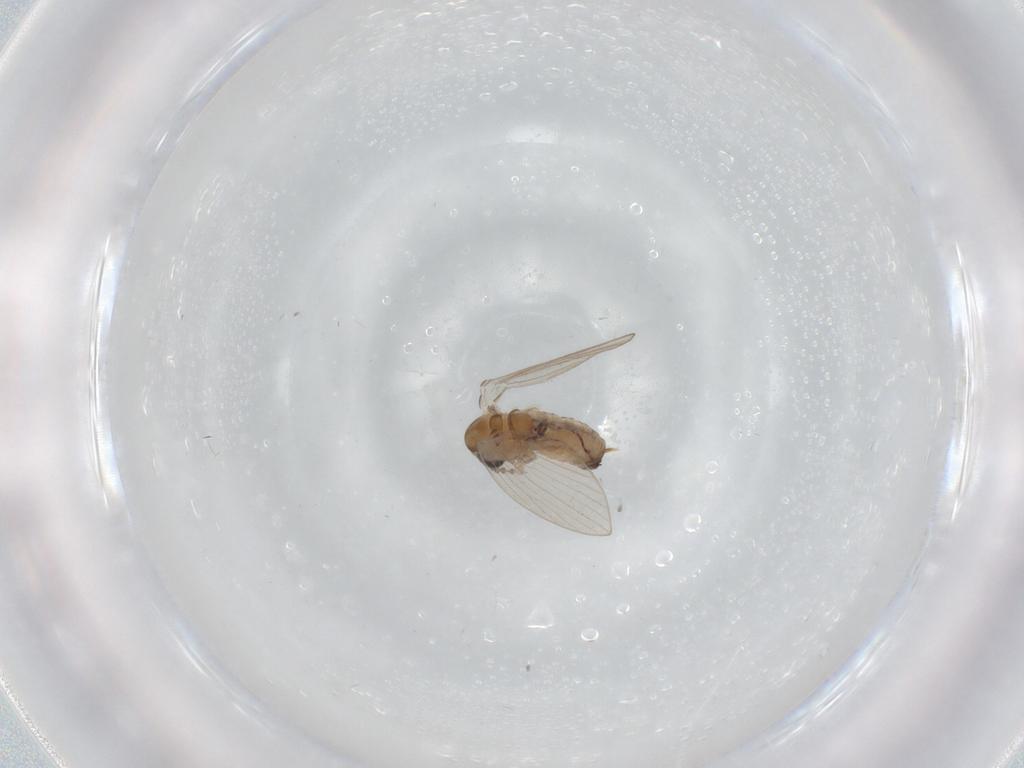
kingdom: Animalia
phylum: Arthropoda
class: Insecta
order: Diptera
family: Psychodidae
